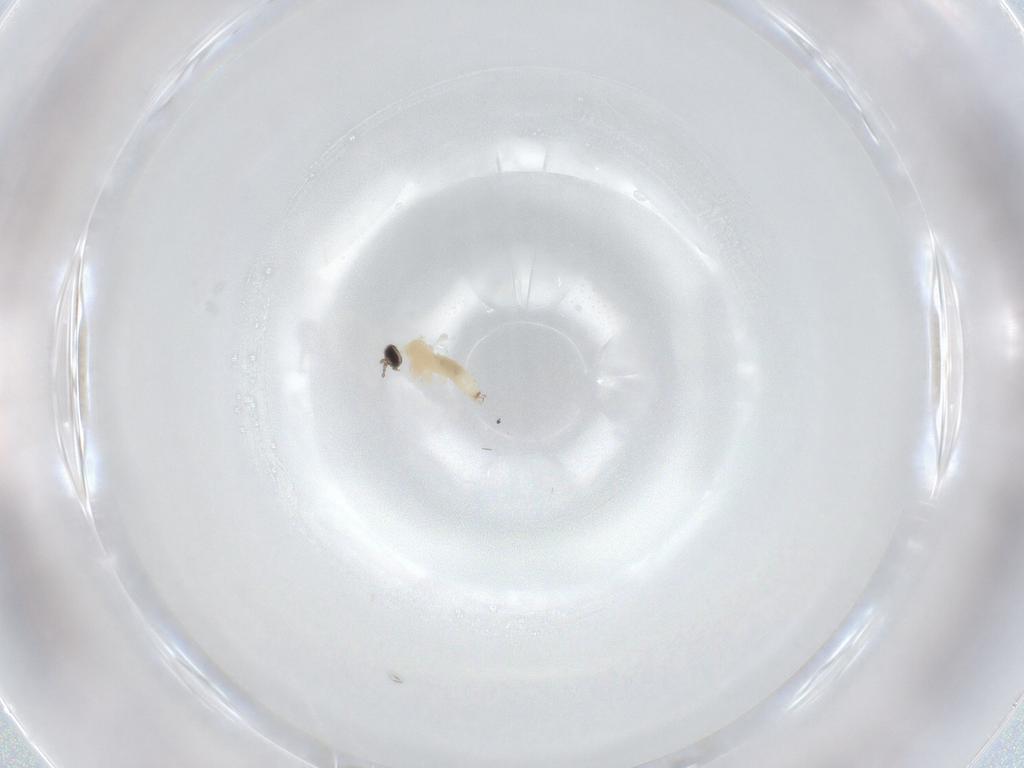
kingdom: Animalia
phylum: Arthropoda
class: Insecta
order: Diptera
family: Cecidomyiidae
